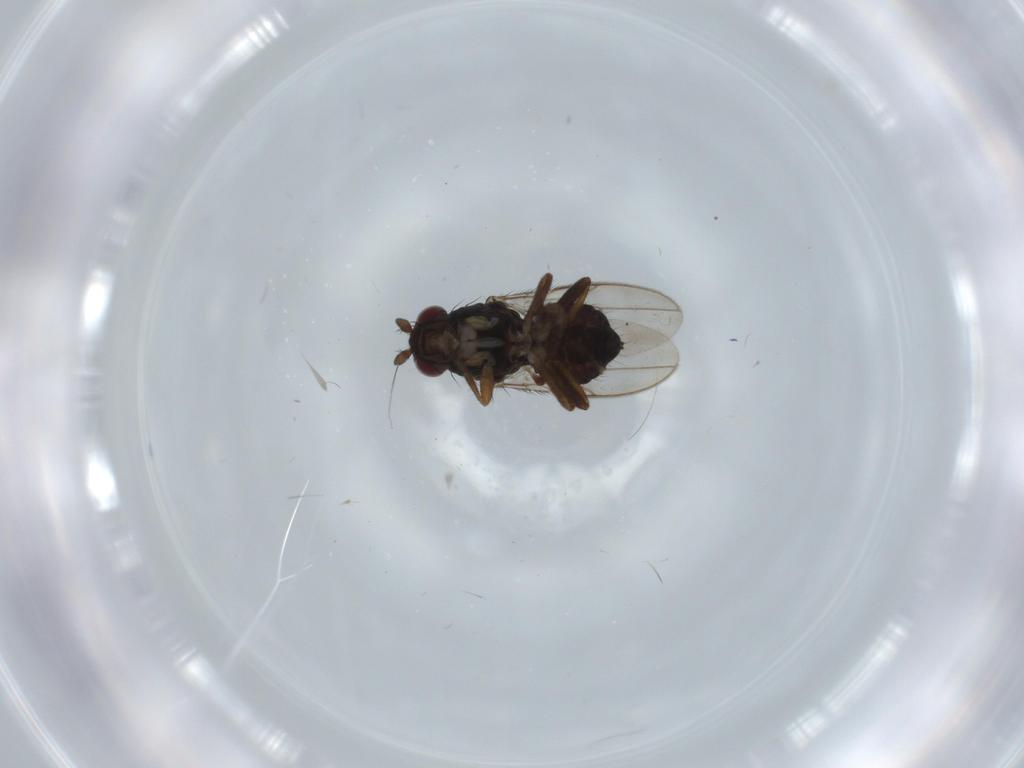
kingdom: Animalia
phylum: Arthropoda
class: Insecta
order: Diptera
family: Sphaeroceridae
